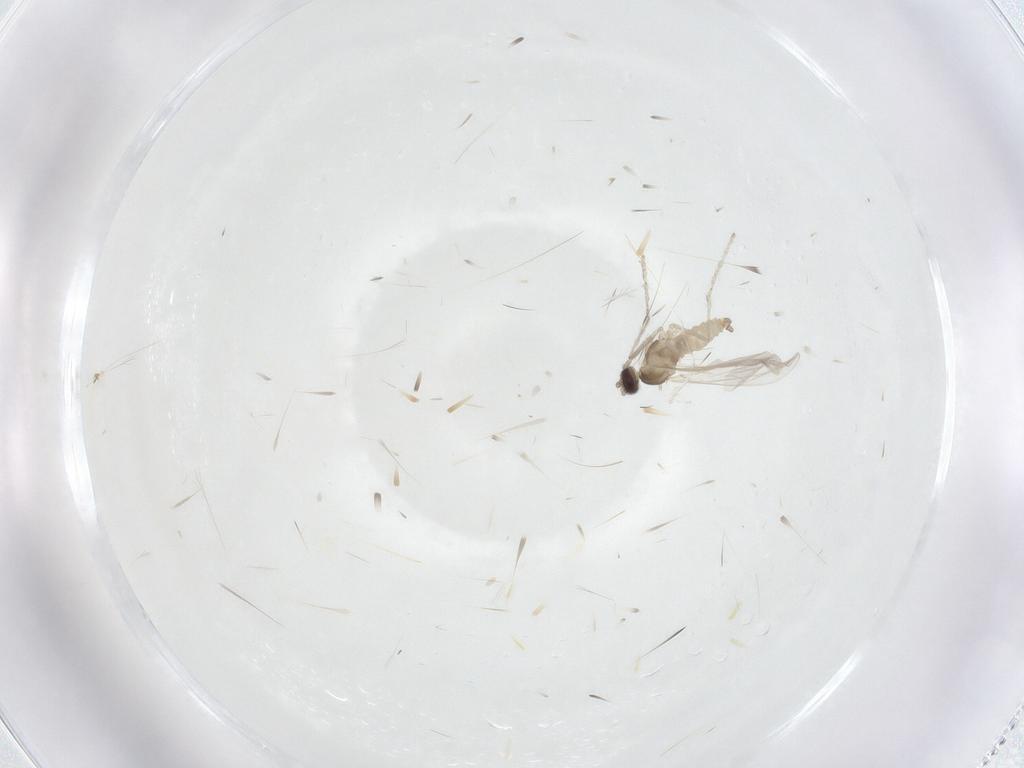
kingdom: Animalia
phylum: Arthropoda
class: Insecta
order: Diptera
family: Cecidomyiidae
